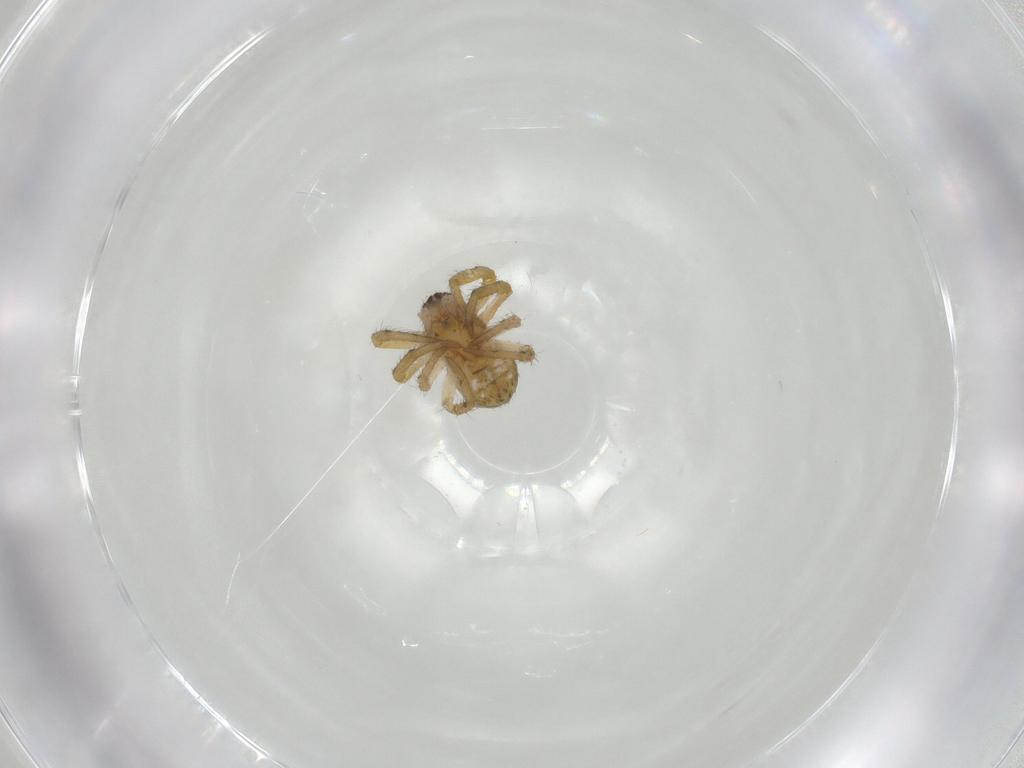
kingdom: Animalia
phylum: Arthropoda
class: Arachnida
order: Araneae
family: Araneidae
